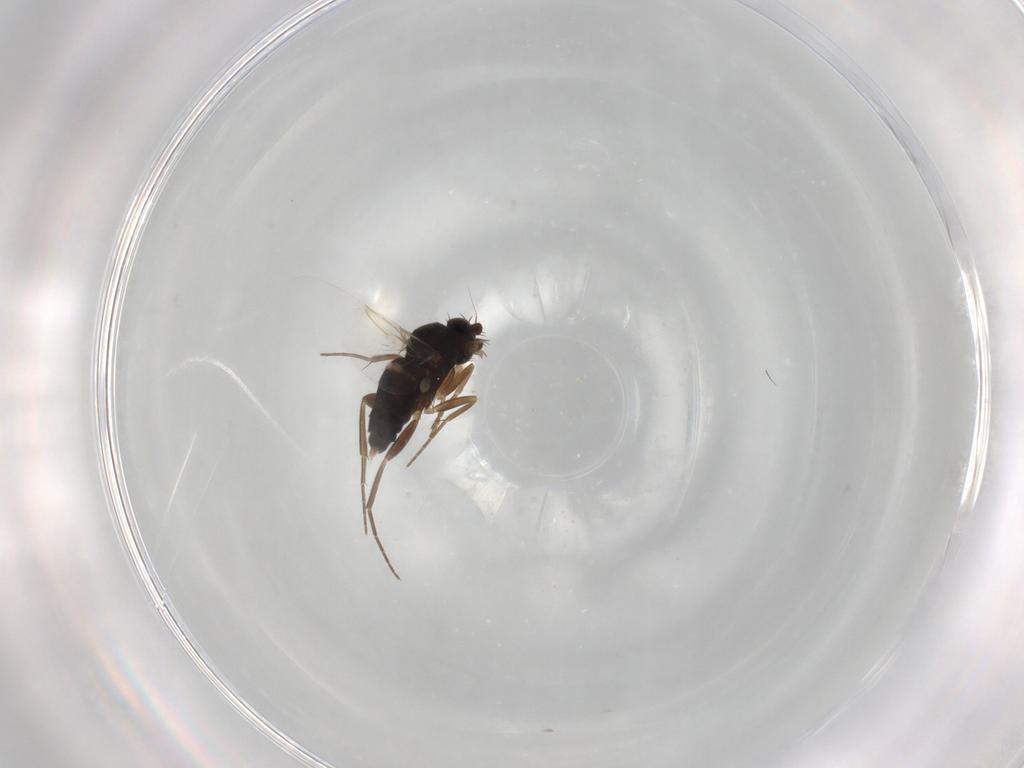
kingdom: Animalia
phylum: Arthropoda
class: Insecta
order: Diptera
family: Phoridae
